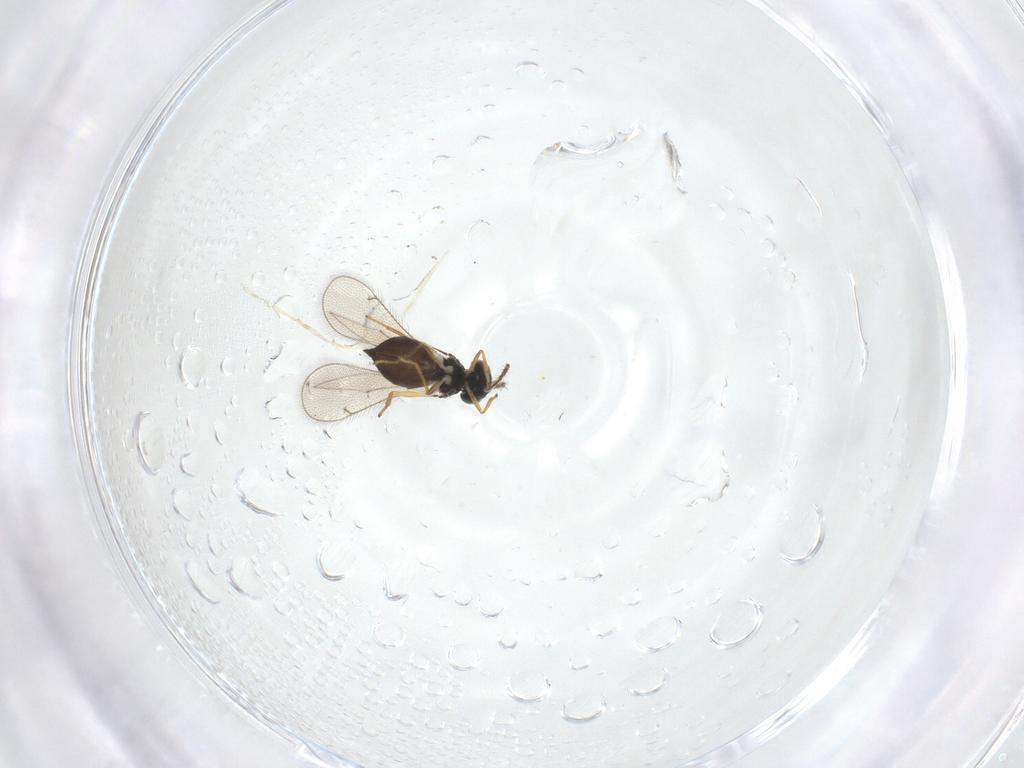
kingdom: Animalia
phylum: Arthropoda
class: Insecta
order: Hymenoptera
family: Eulophidae
